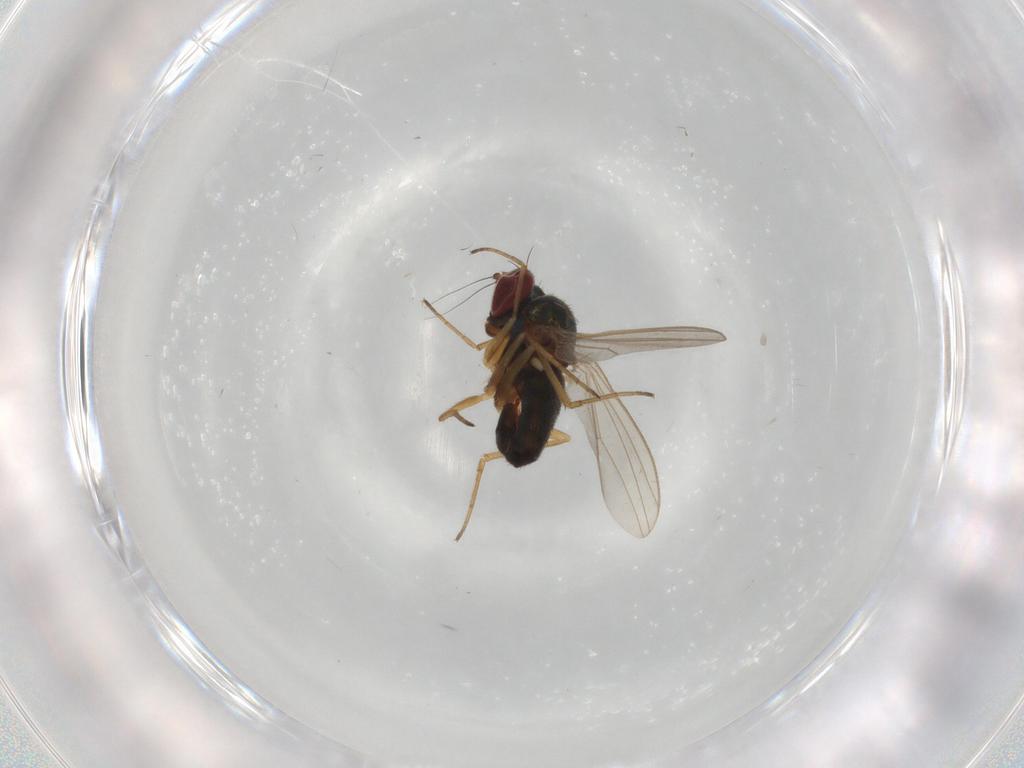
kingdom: Animalia
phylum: Arthropoda
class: Insecta
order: Diptera
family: Dolichopodidae
